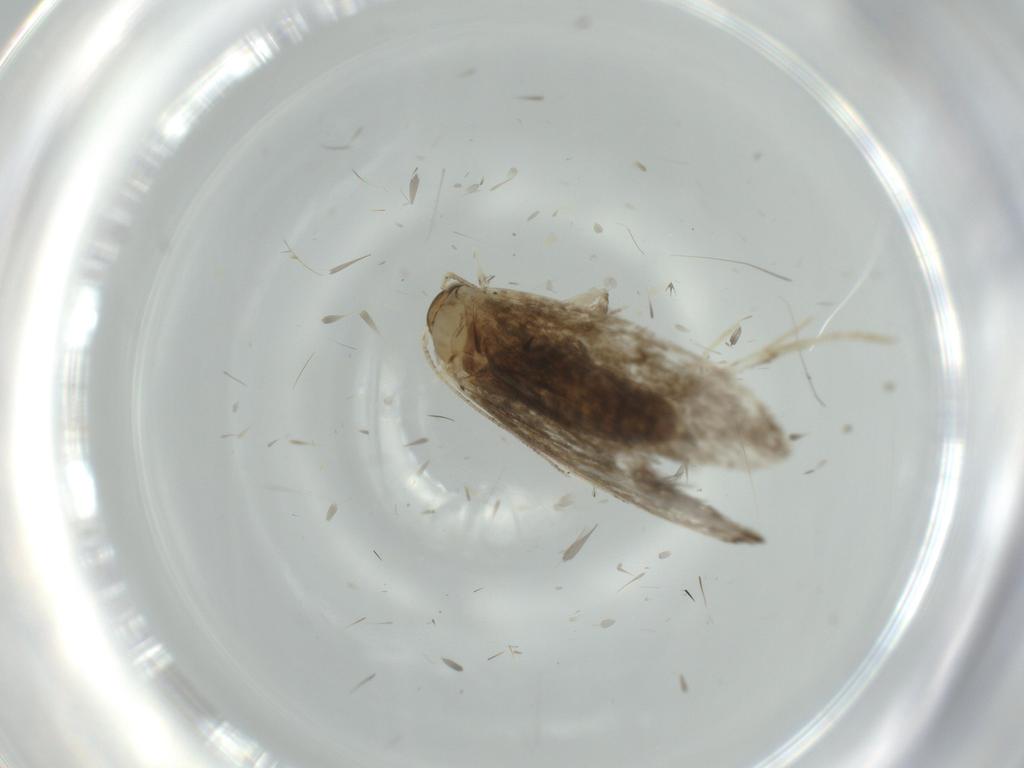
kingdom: Animalia
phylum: Arthropoda
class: Insecta
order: Lepidoptera
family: Tineidae
